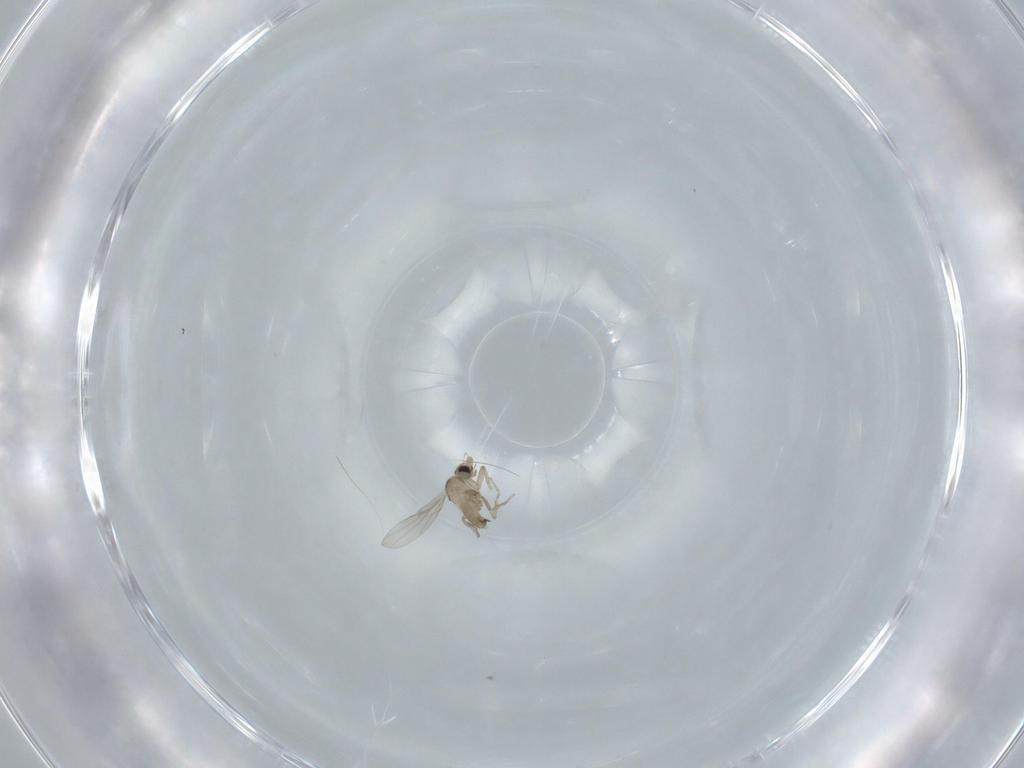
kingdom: Animalia
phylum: Arthropoda
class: Insecta
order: Diptera
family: Phoridae
